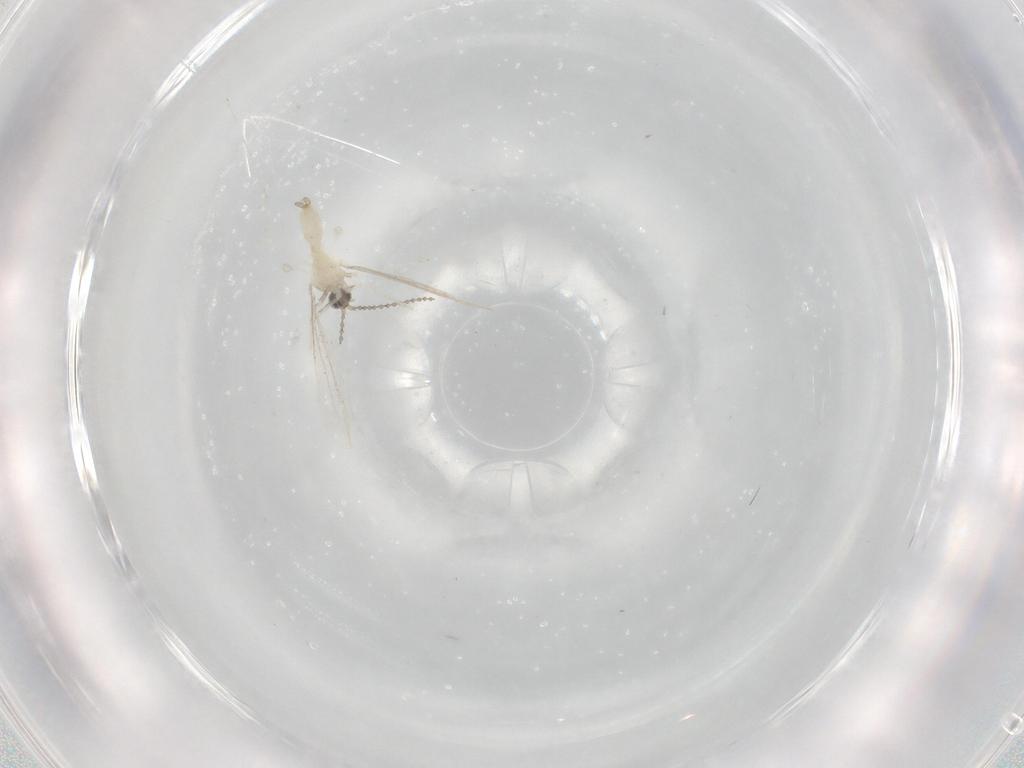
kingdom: Animalia
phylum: Arthropoda
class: Insecta
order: Diptera
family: Cecidomyiidae
